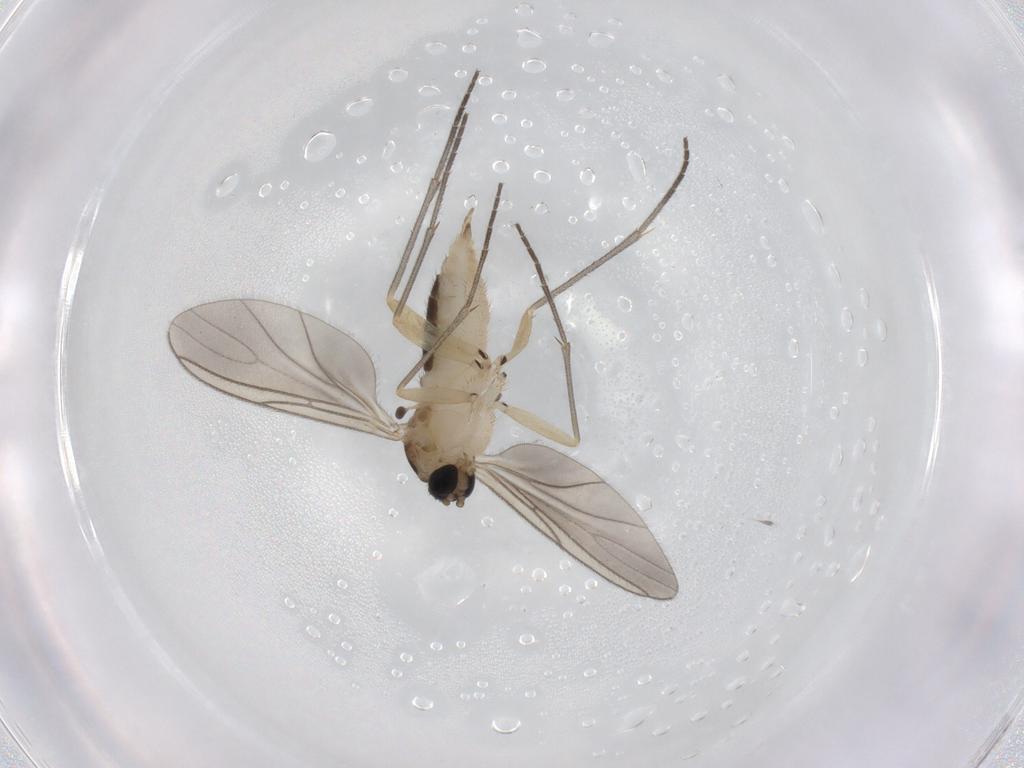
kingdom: Animalia
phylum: Arthropoda
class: Insecta
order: Diptera
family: Sciaridae
